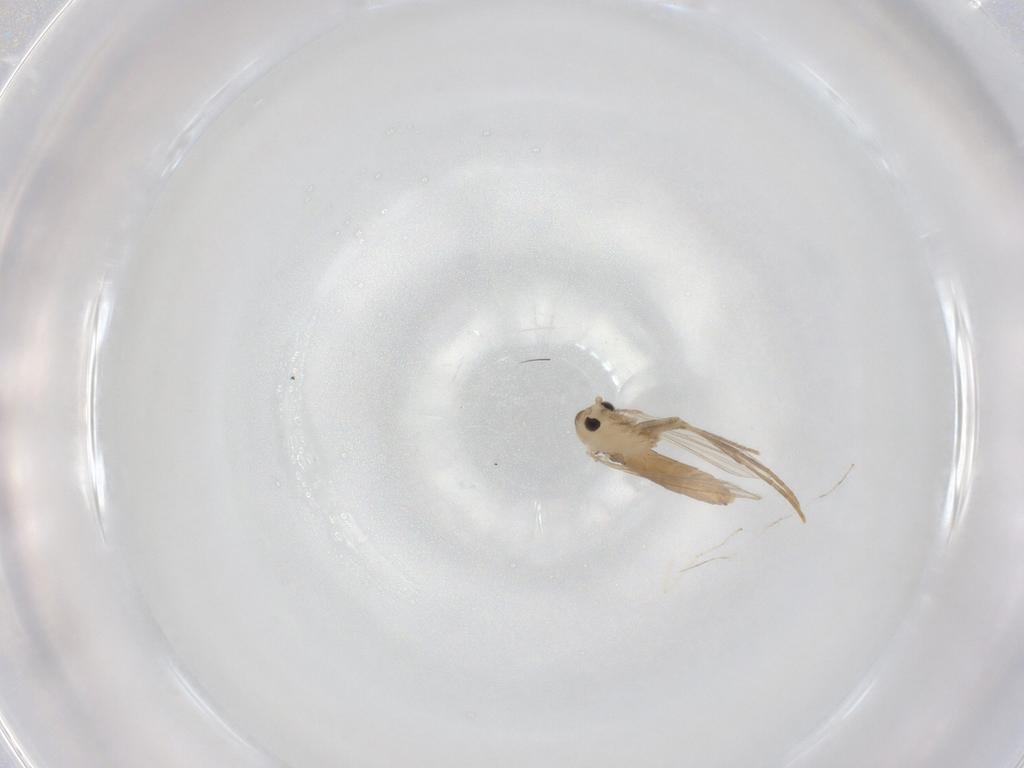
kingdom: Animalia
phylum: Arthropoda
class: Insecta
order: Diptera
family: Psychodidae
